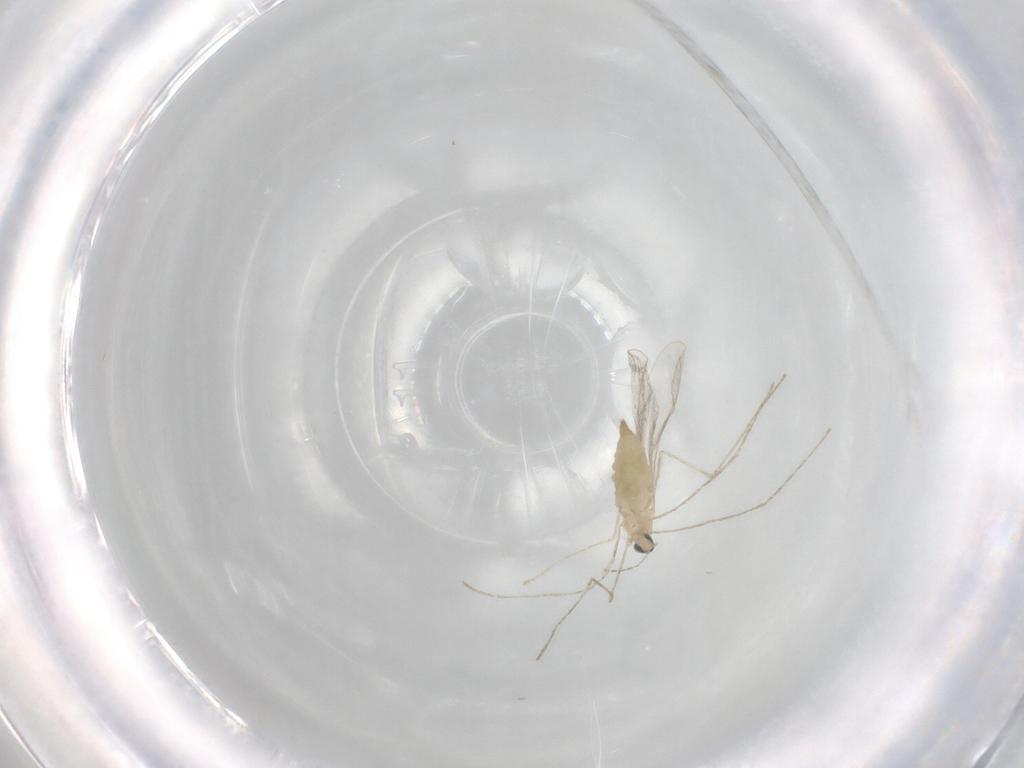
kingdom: Animalia
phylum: Arthropoda
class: Insecta
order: Diptera
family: Cecidomyiidae
